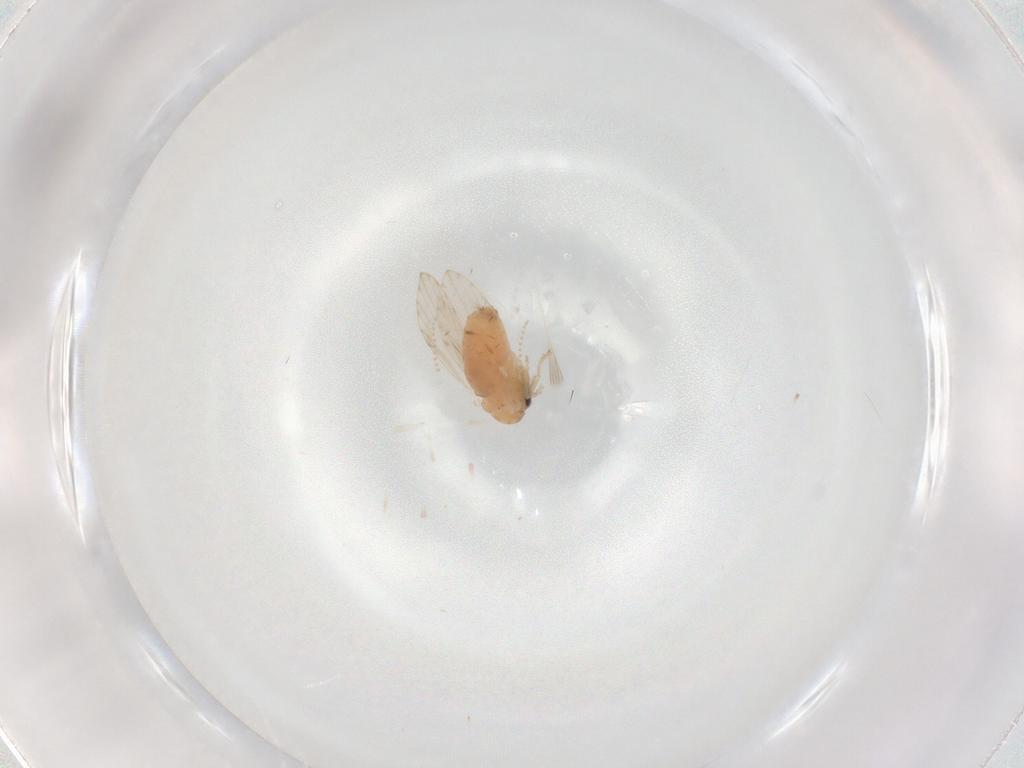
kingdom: Animalia
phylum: Arthropoda
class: Insecta
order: Diptera
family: Psychodidae
